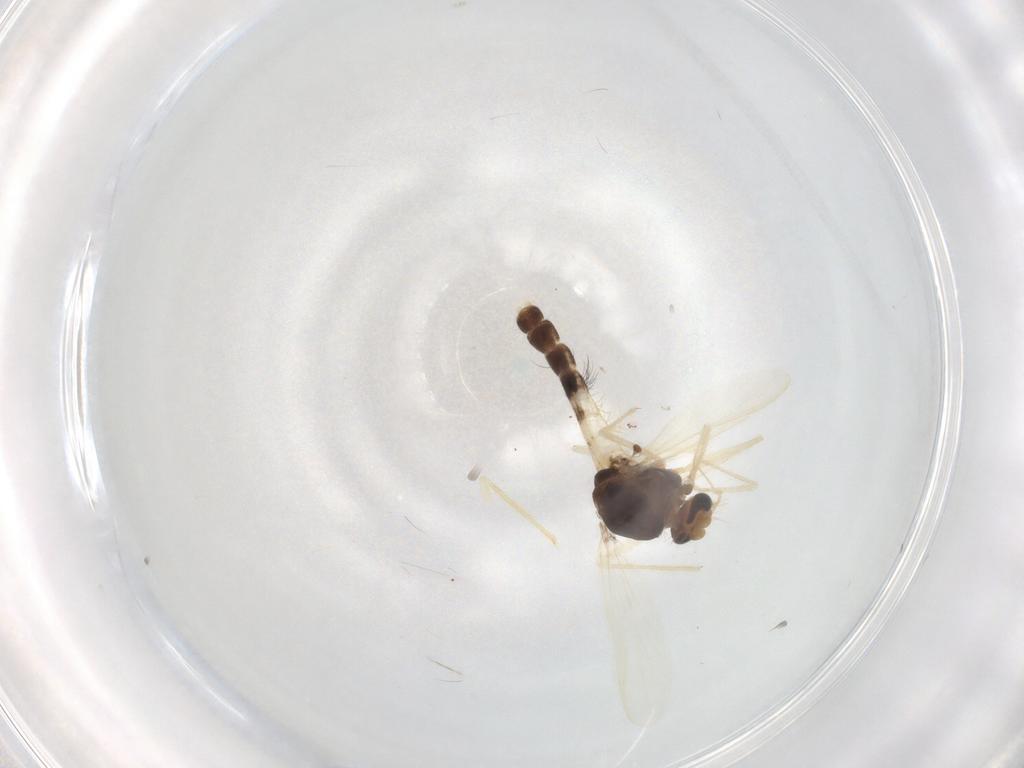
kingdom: Animalia
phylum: Arthropoda
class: Insecta
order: Diptera
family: Chironomidae
